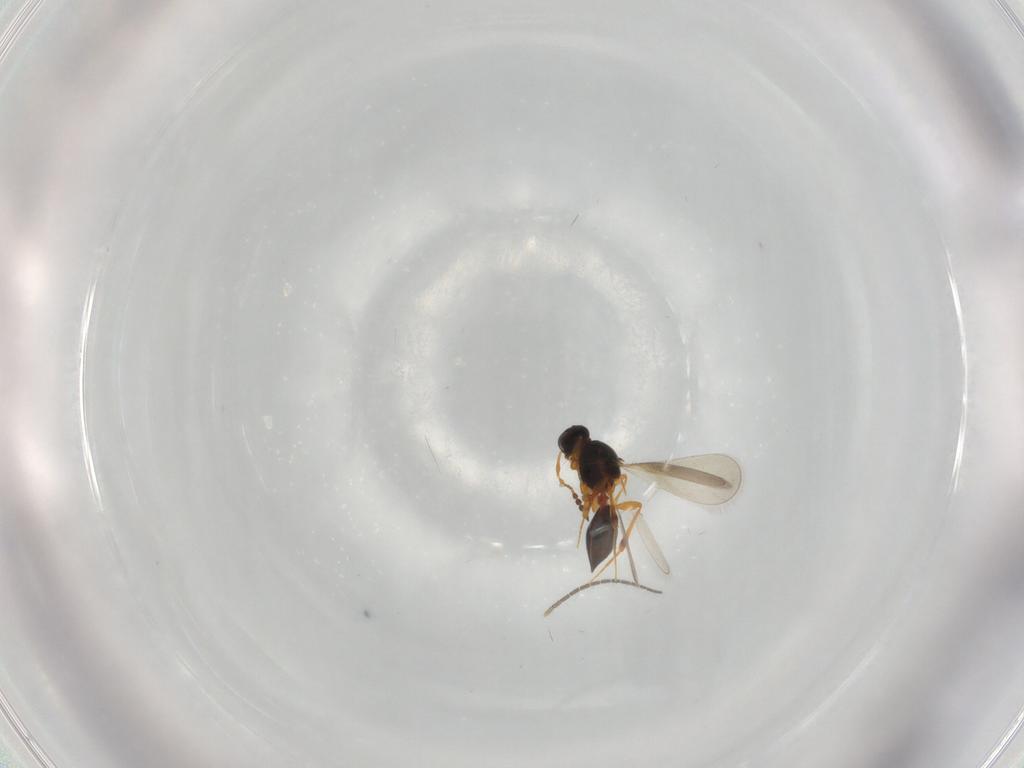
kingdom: Animalia
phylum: Arthropoda
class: Insecta
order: Hymenoptera
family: Platygastridae
